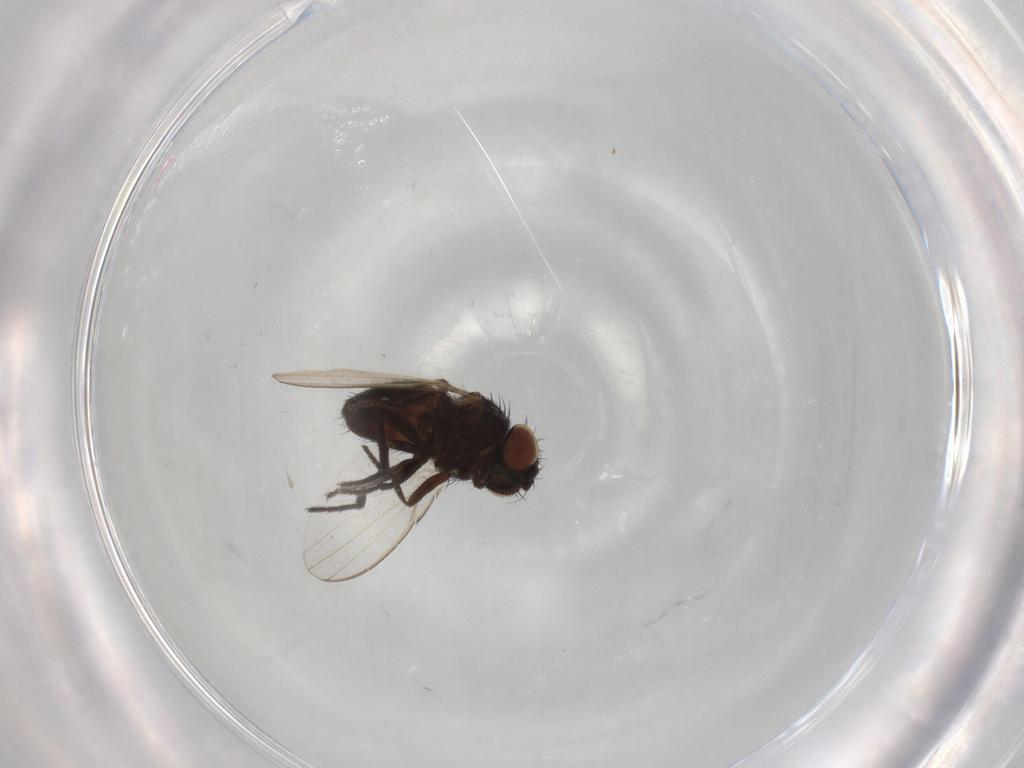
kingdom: Animalia
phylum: Arthropoda
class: Insecta
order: Diptera
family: Milichiidae
